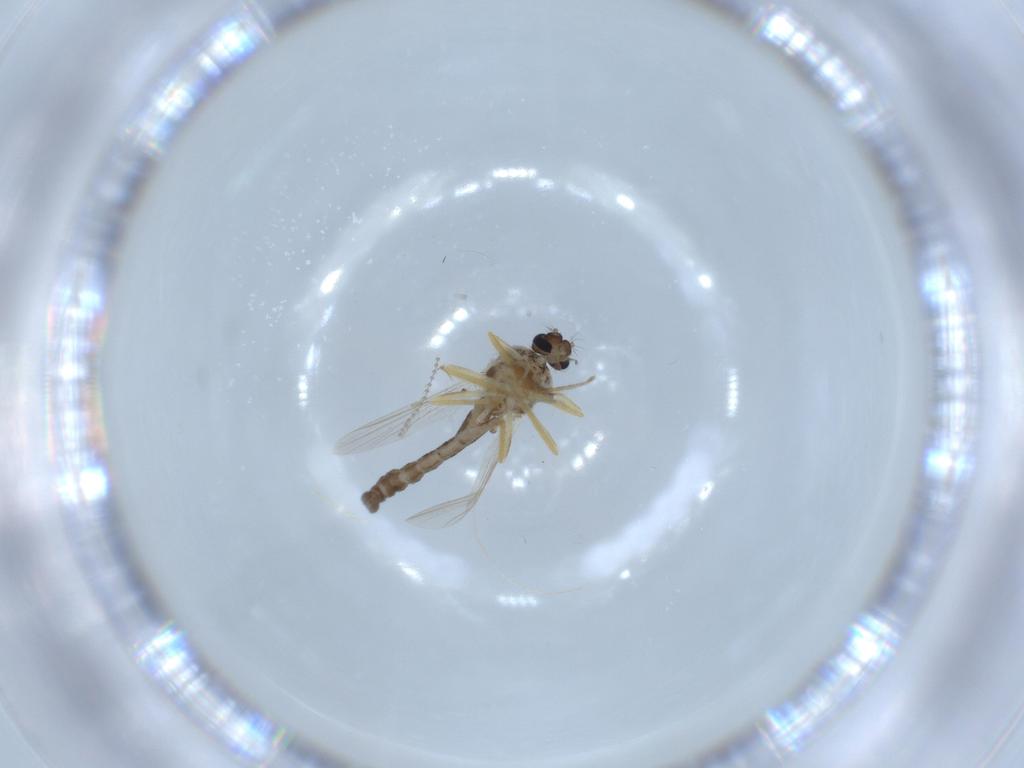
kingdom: Animalia
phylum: Arthropoda
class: Insecta
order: Diptera
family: Ceratopogonidae
